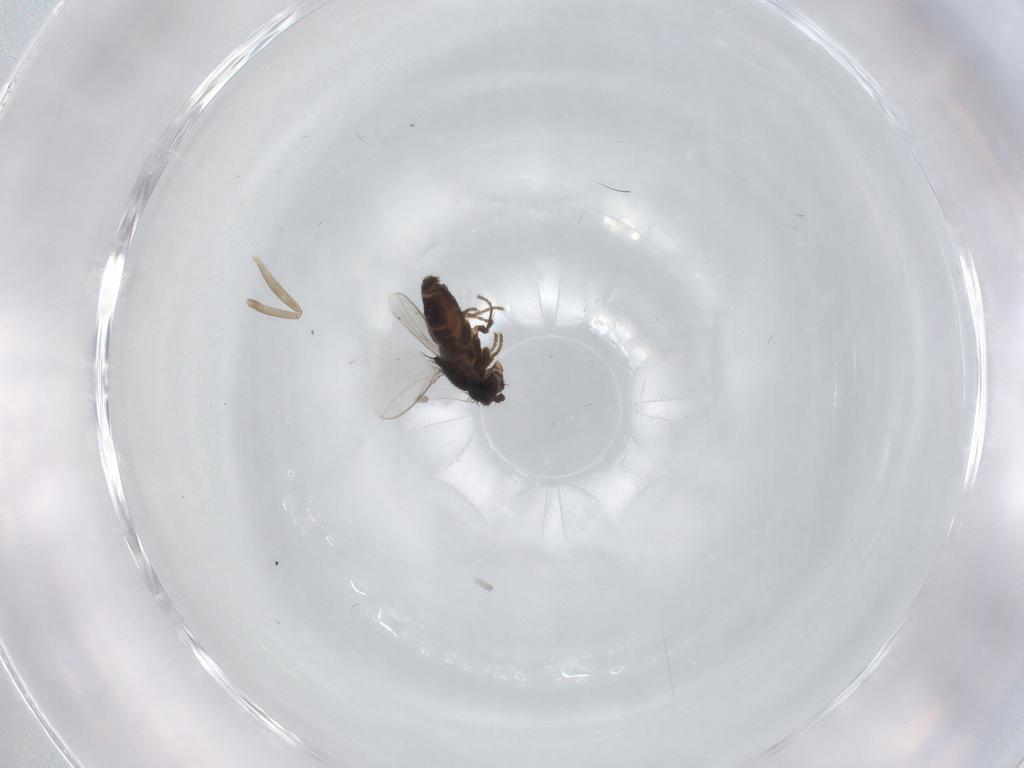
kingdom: Animalia
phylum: Arthropoda
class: Insecta
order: Diptera
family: Sphaeroceridae
